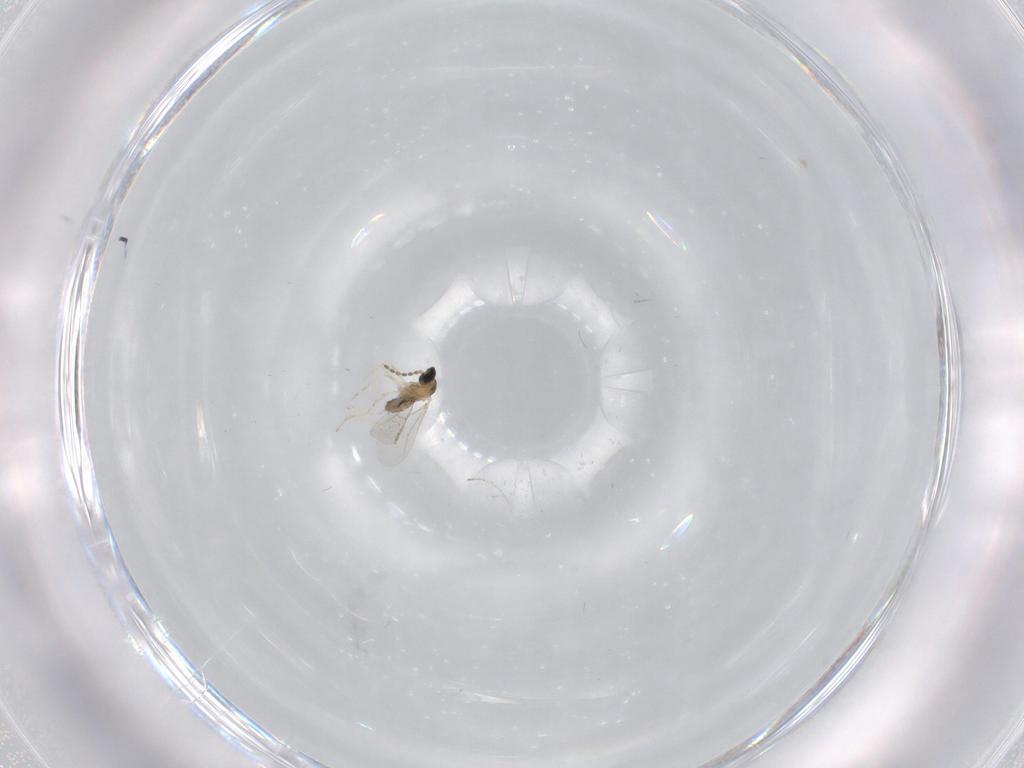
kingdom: Animalia
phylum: Arthropoda
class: Insecta
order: Diptera
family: Cecidomyiidae
